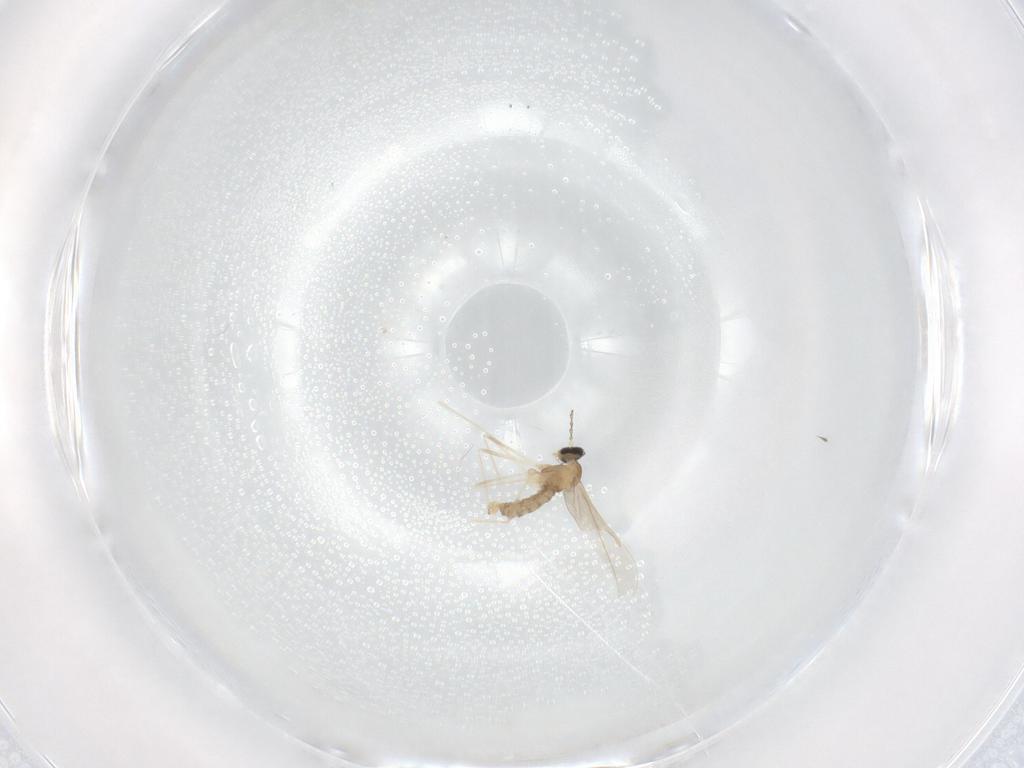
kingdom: Animalia
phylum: Arthropoda
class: Insecta
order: Diptera
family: Cecidomyiidae
